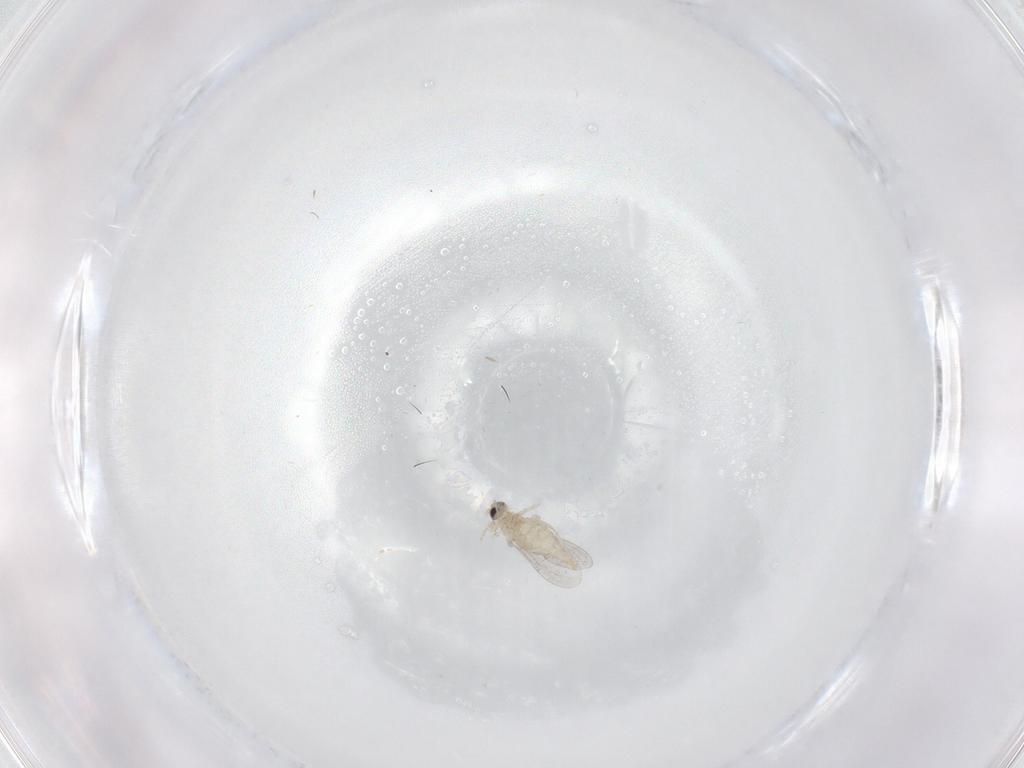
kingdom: Animalia
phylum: Arthropoda
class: Insecta
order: Diptera
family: Cecidomyiidae
